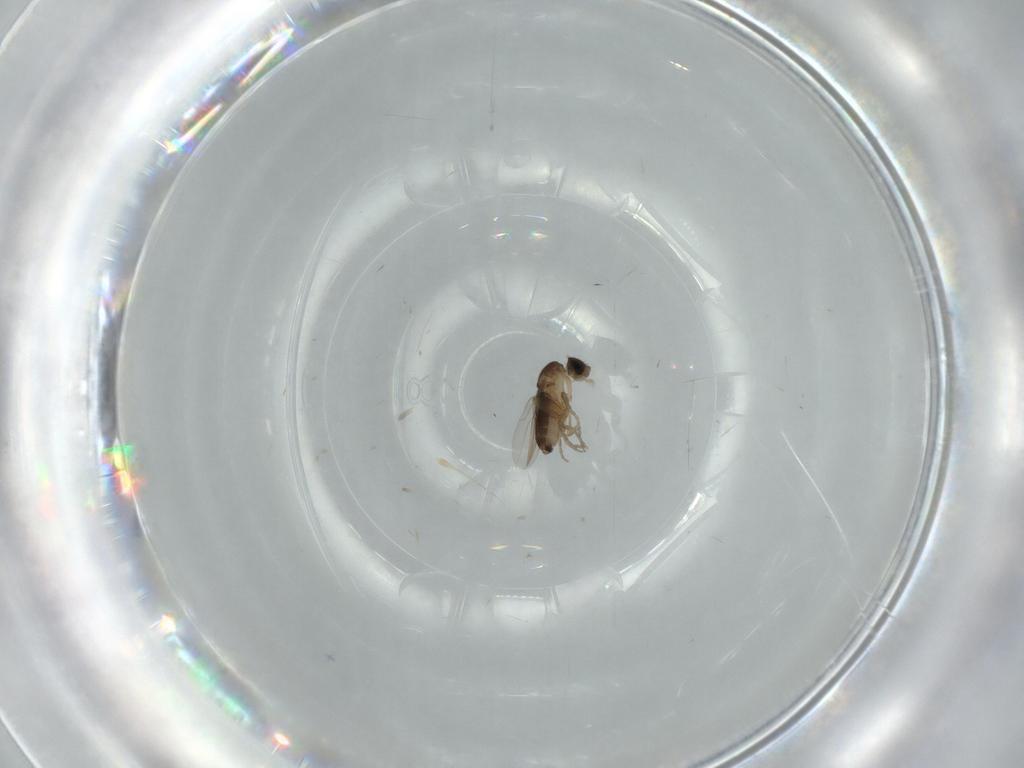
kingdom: Animalia
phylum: Arthropoda
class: Insecta
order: Diptera
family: Phoridae
